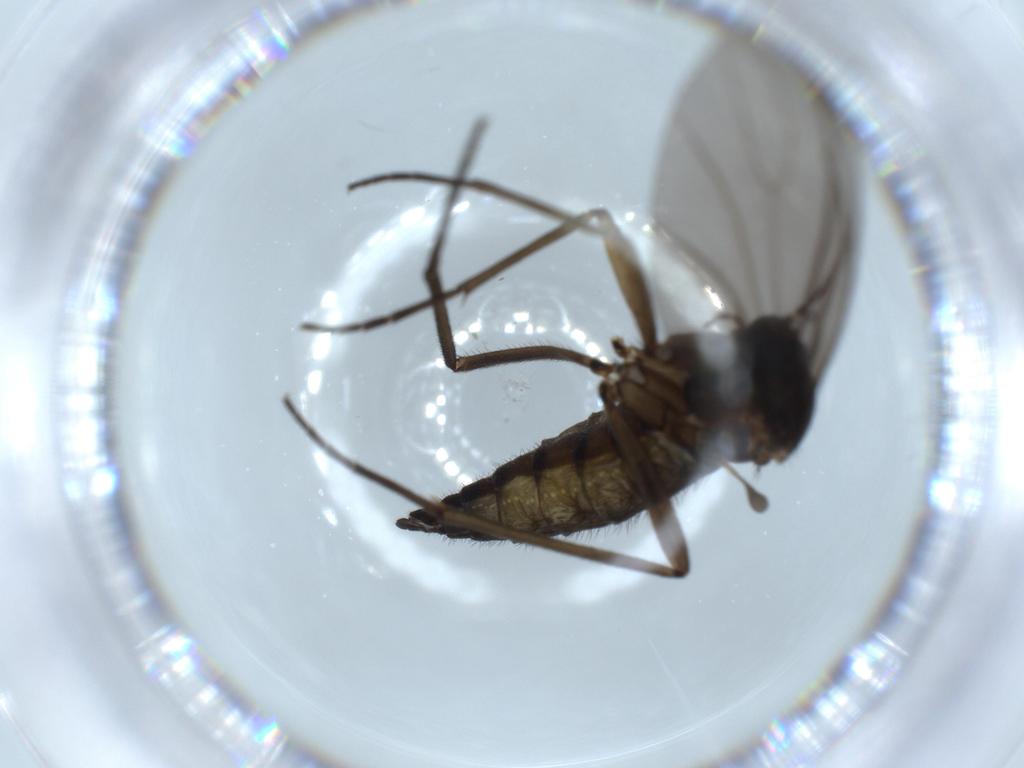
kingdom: Animalia
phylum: Arthropoda
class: Insecta
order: Diptera
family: Sciaridae
